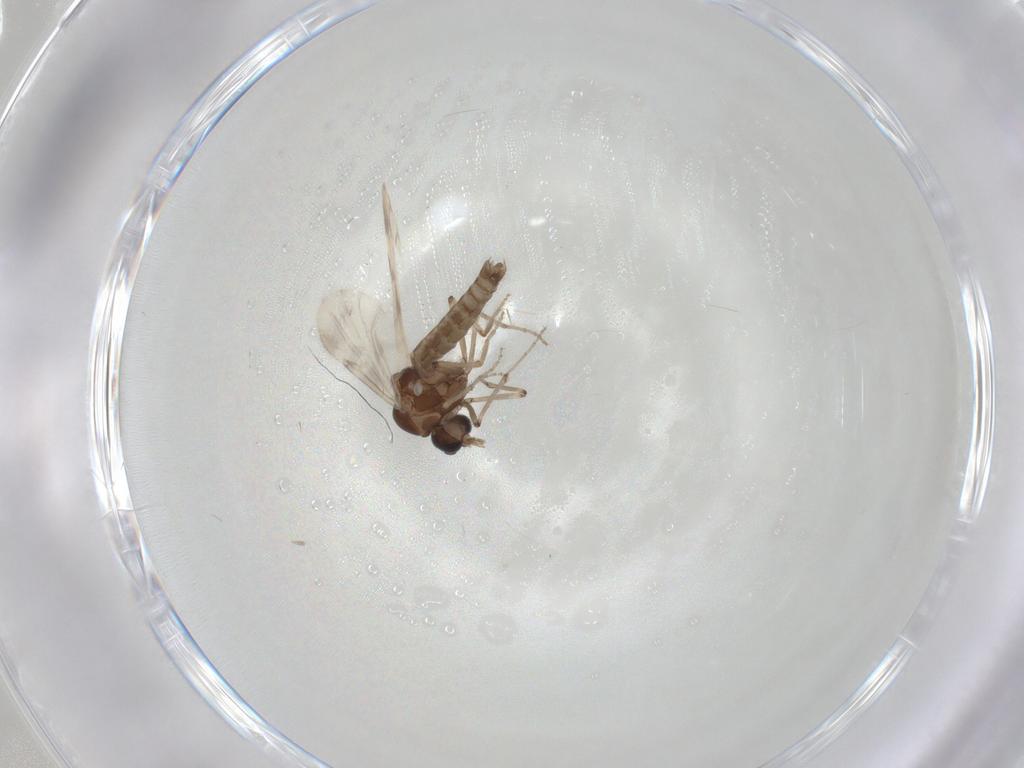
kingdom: Animalia
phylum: Arthropoda
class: Insecta
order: Diptera
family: Ceratopogonidae
